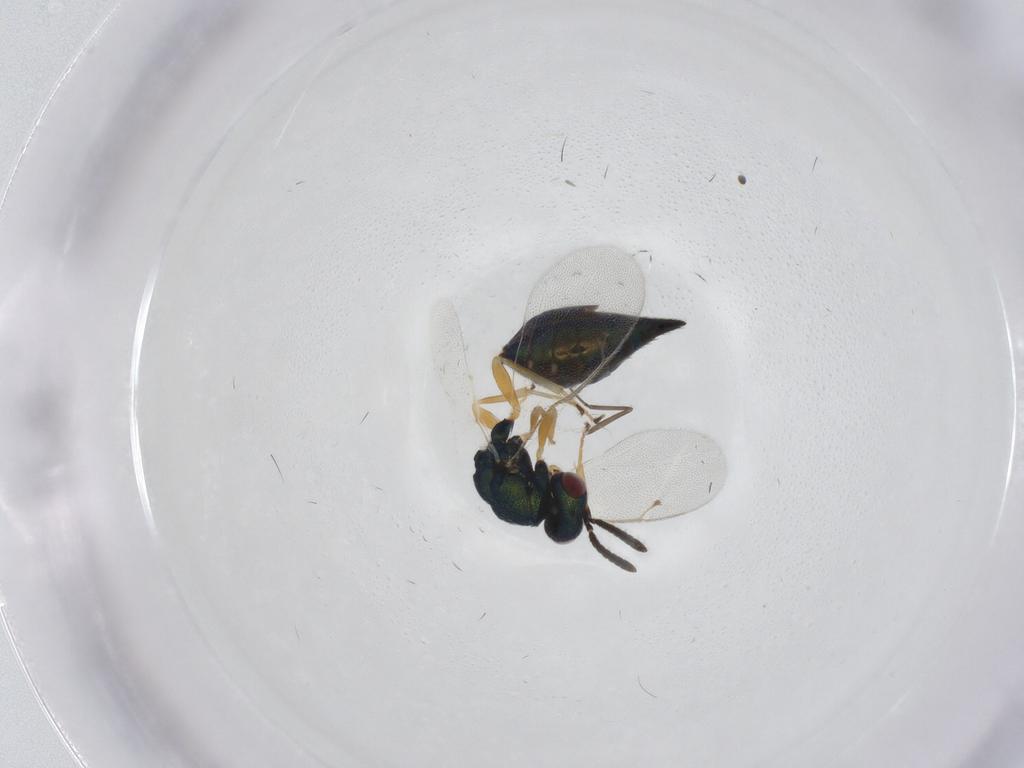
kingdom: Animalia
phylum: Arthropoda
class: Insecta
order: Hymenoptera
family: Pteromalidae
